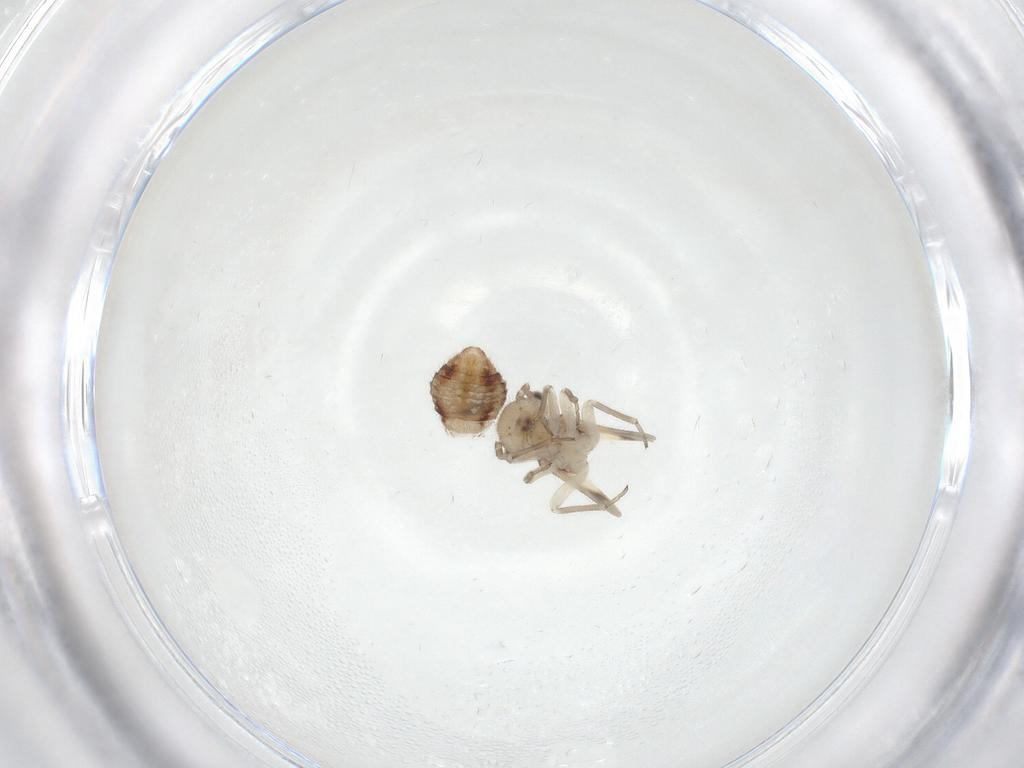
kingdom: Animalia
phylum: Arthropoda
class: Insecta
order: Psocodea
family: Ectopsocidae
